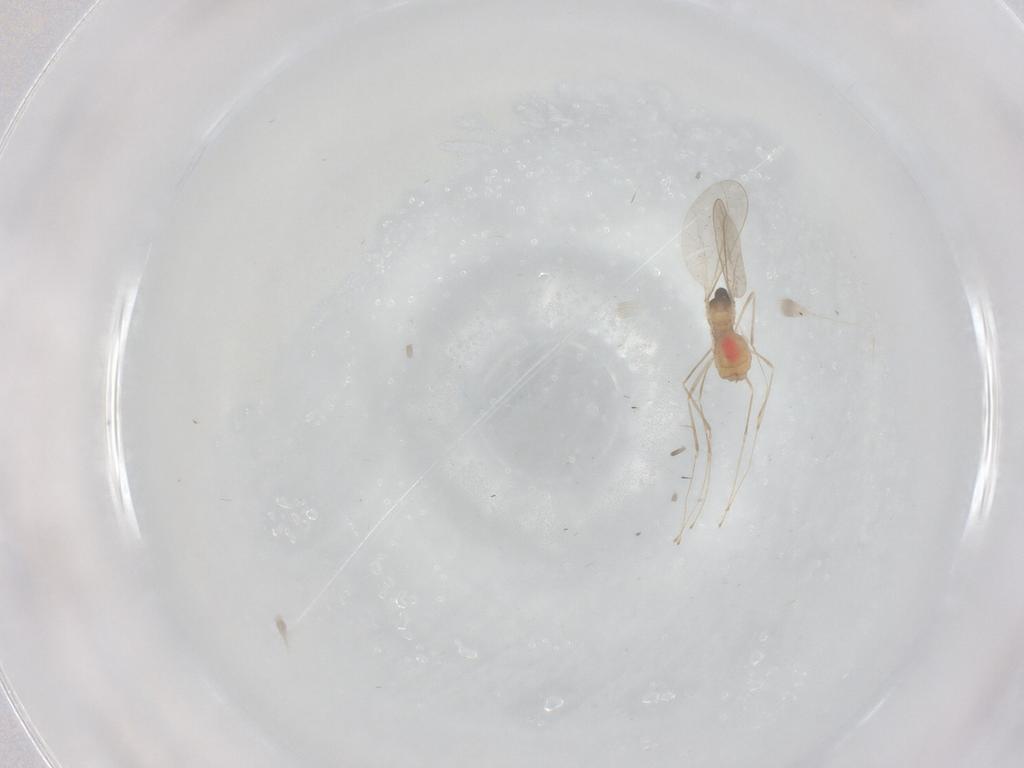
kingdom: Animalia
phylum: Arthropoda
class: Insecta
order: Diptera
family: Cecidomyiidae
